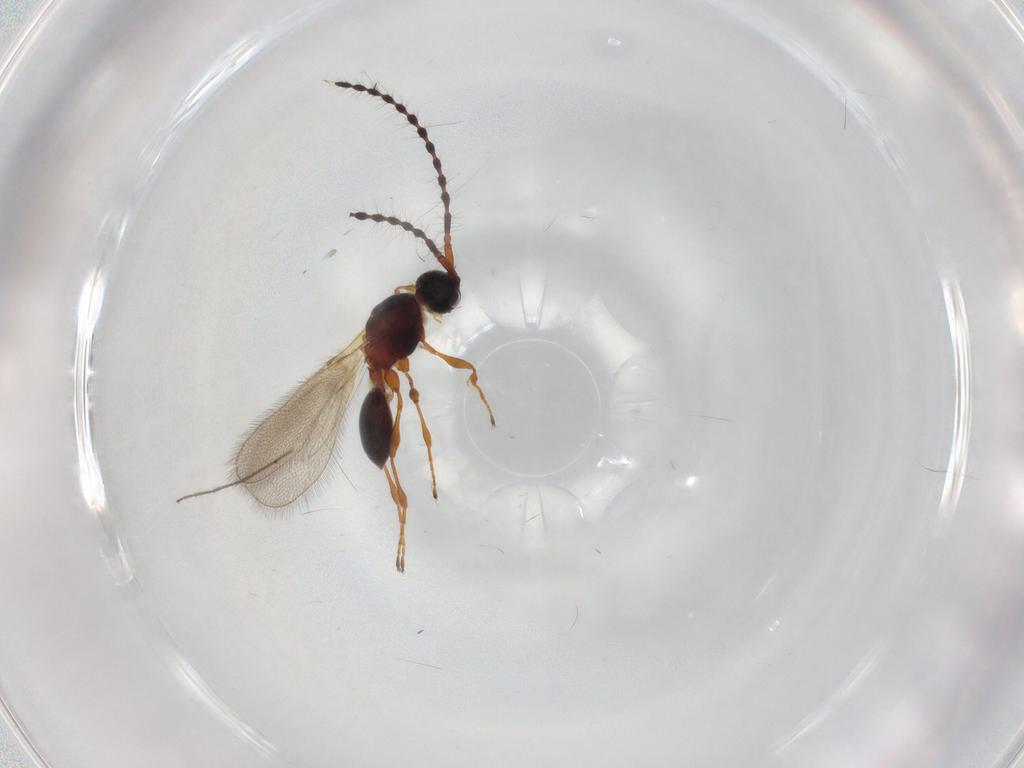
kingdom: Animalia
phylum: Arthropoda
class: Insecta
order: Hymenoptera
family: Diapriidae
